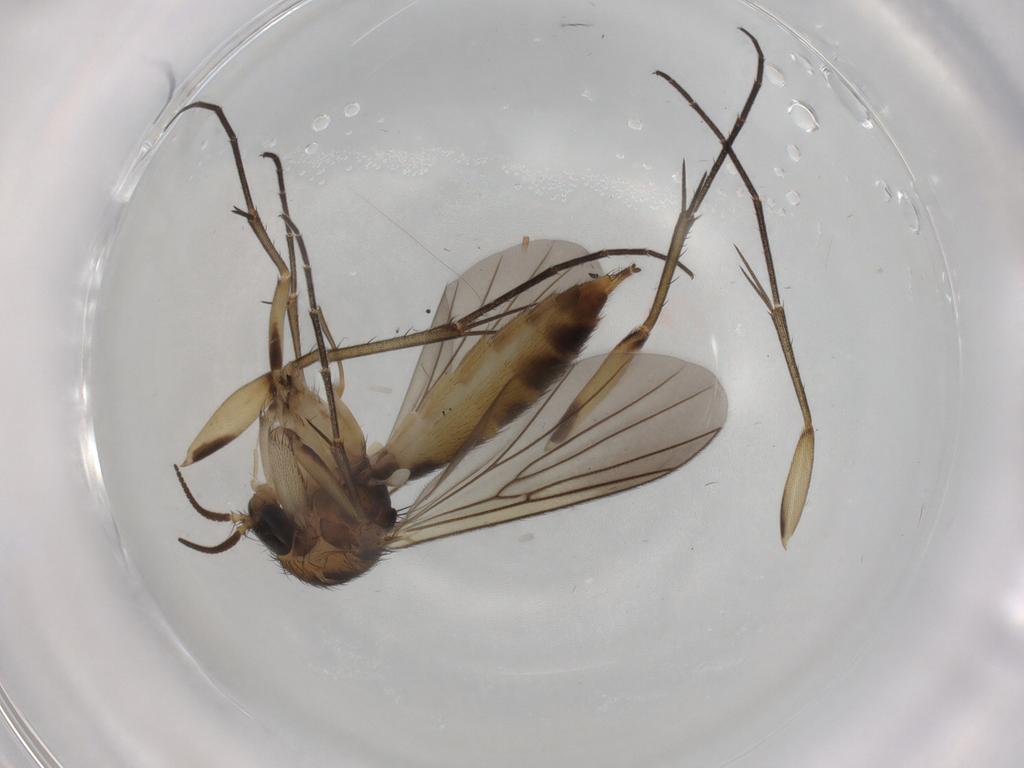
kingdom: Animalia
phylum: Arthropoda
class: Insecta
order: Diptera
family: Mycetophilidae
